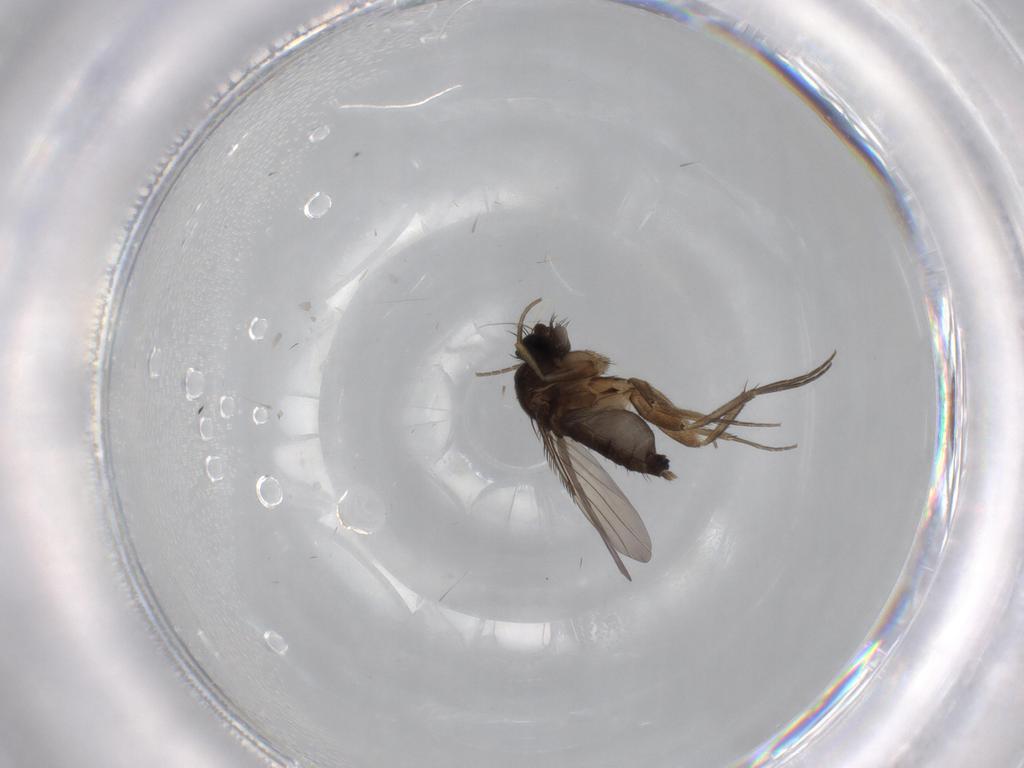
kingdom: Animalia
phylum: Arthropoda
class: Insecta
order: Diptera
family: Phoridae
